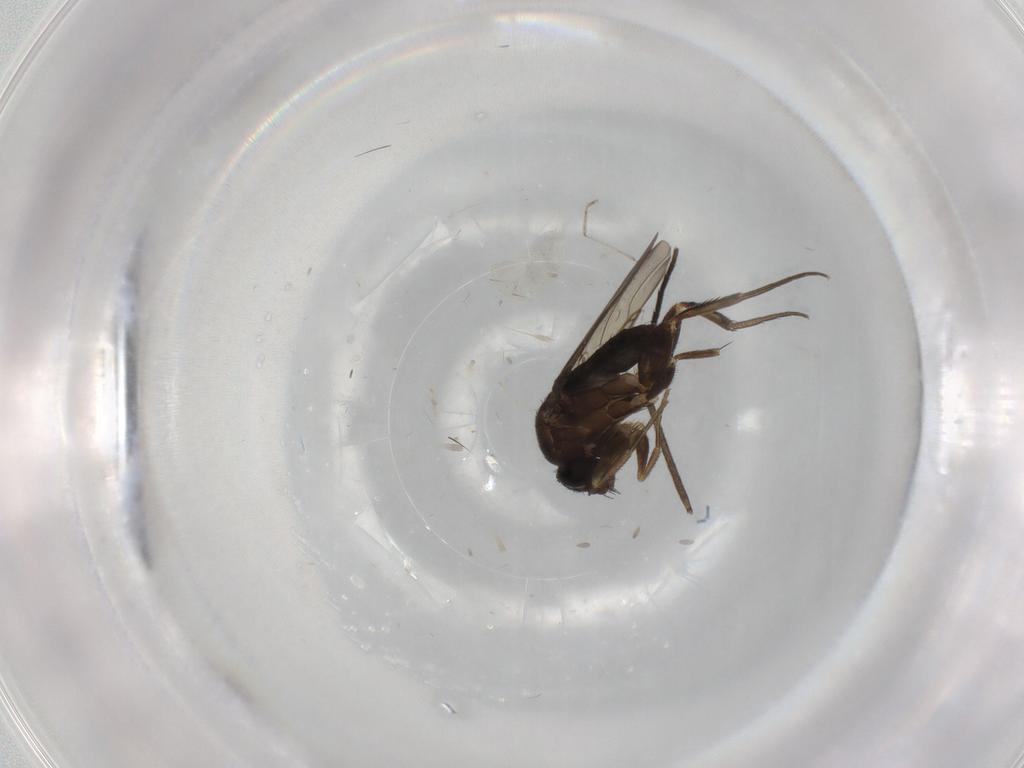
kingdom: Animalia
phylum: Arthropoda
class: Insecta
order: Diptera
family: Phoridae
